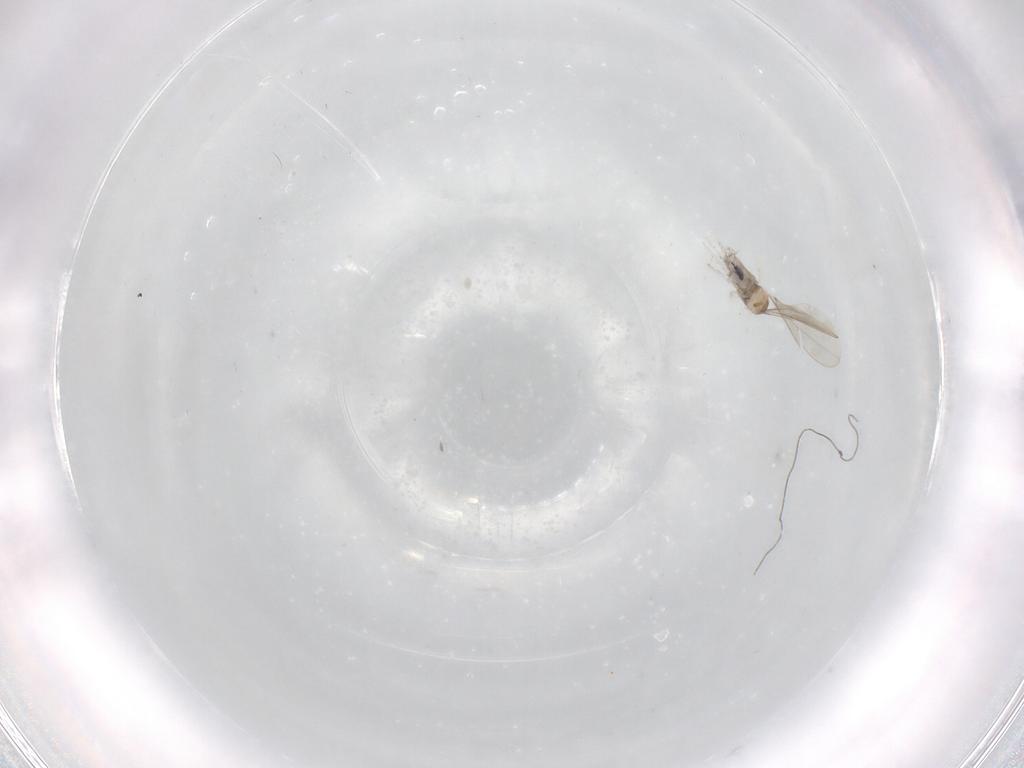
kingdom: Animalia
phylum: Arthropoda
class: Insecta
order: Diptera
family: Cecidomyiidae
